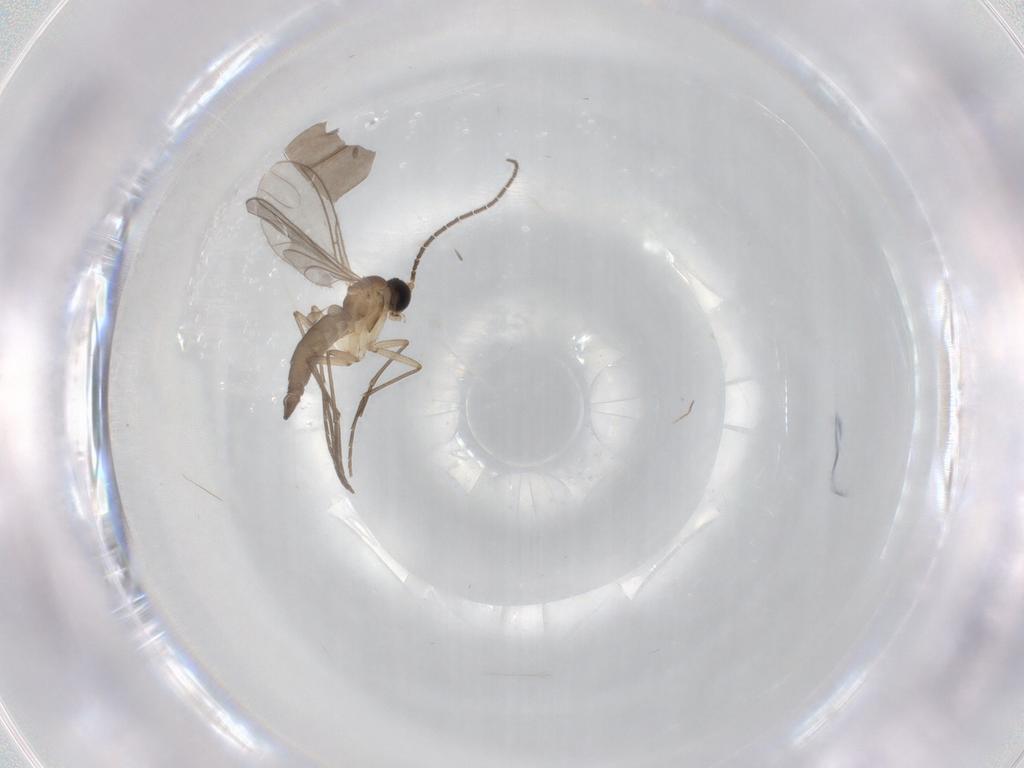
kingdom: Animalia
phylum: Arthropoda
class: Insecta
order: Diptera
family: Sciaridae
